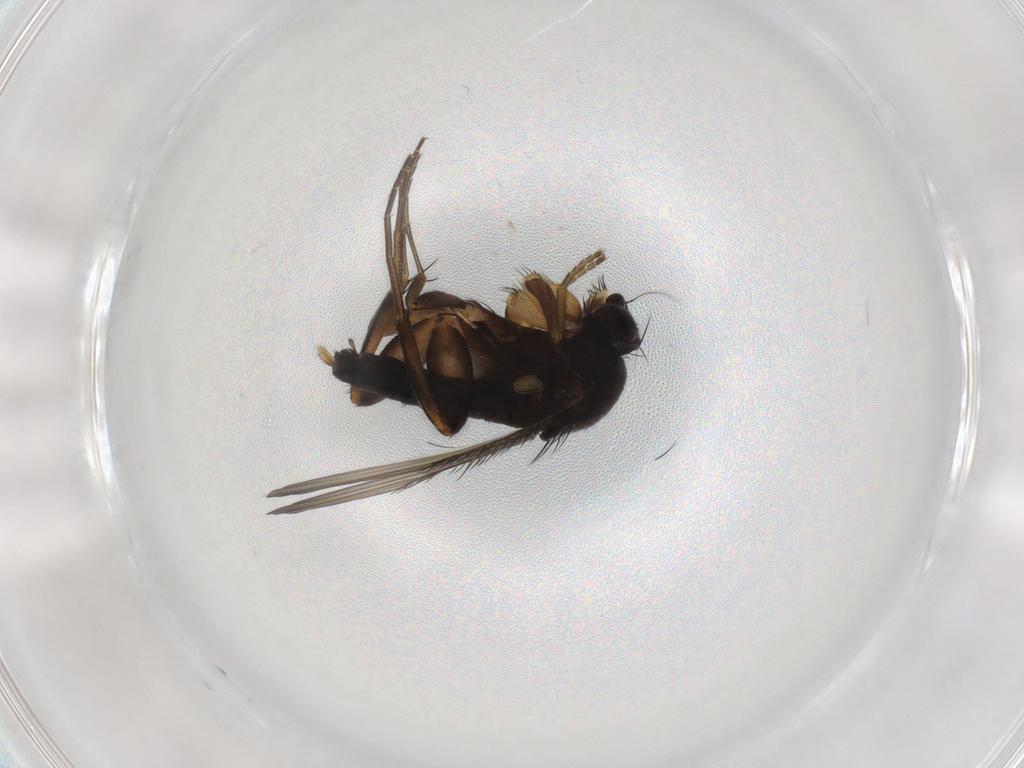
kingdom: Animalia
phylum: Arthropoda
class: Insecta
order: Diptera
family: Phoridae
